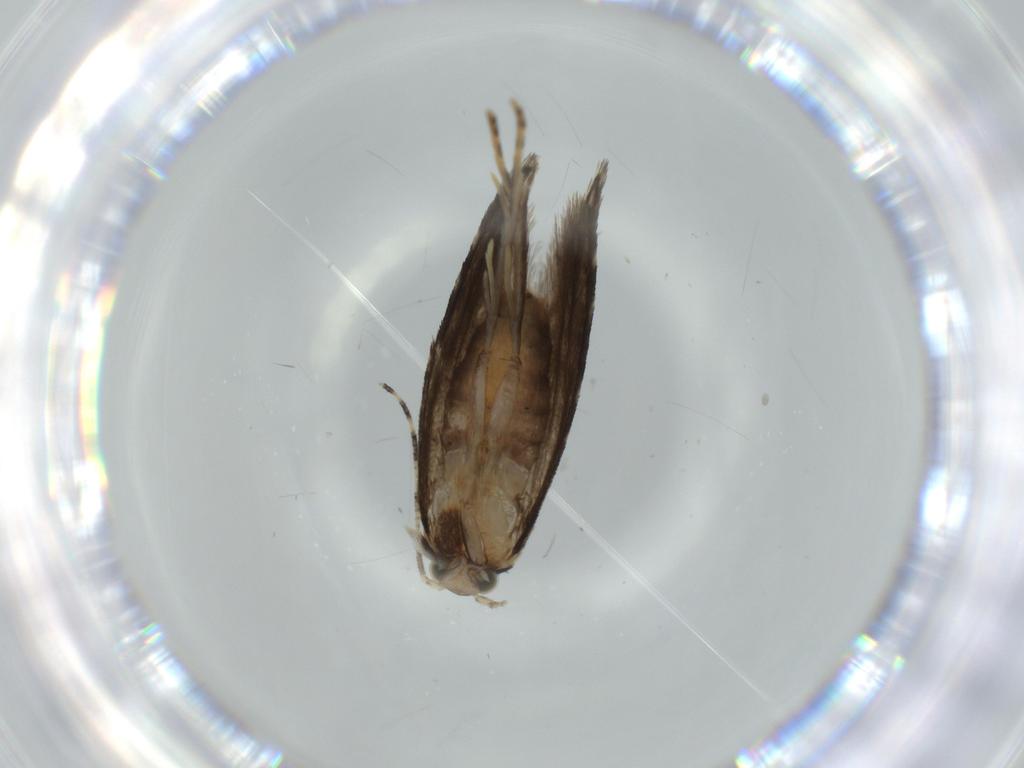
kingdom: Animalia
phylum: Arthropoda
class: Insecta
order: Lepidoptera
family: Tineidae
